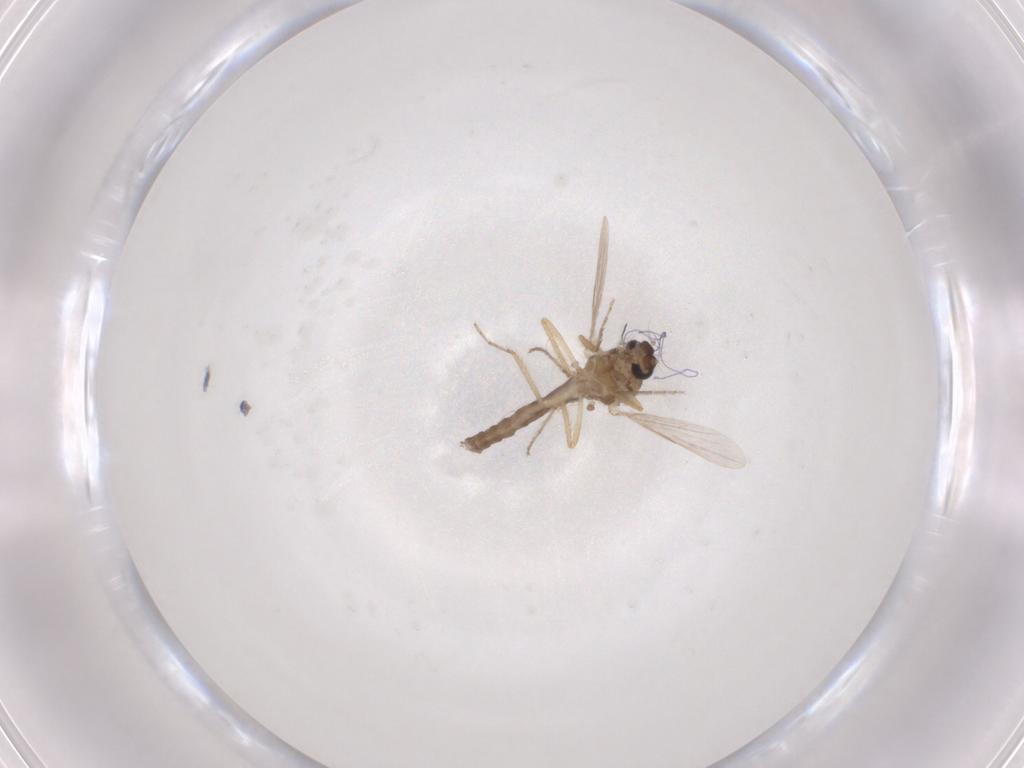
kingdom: Animalia
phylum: Arthropoda
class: Insecta
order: Diptera
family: Ceratopogonidae
